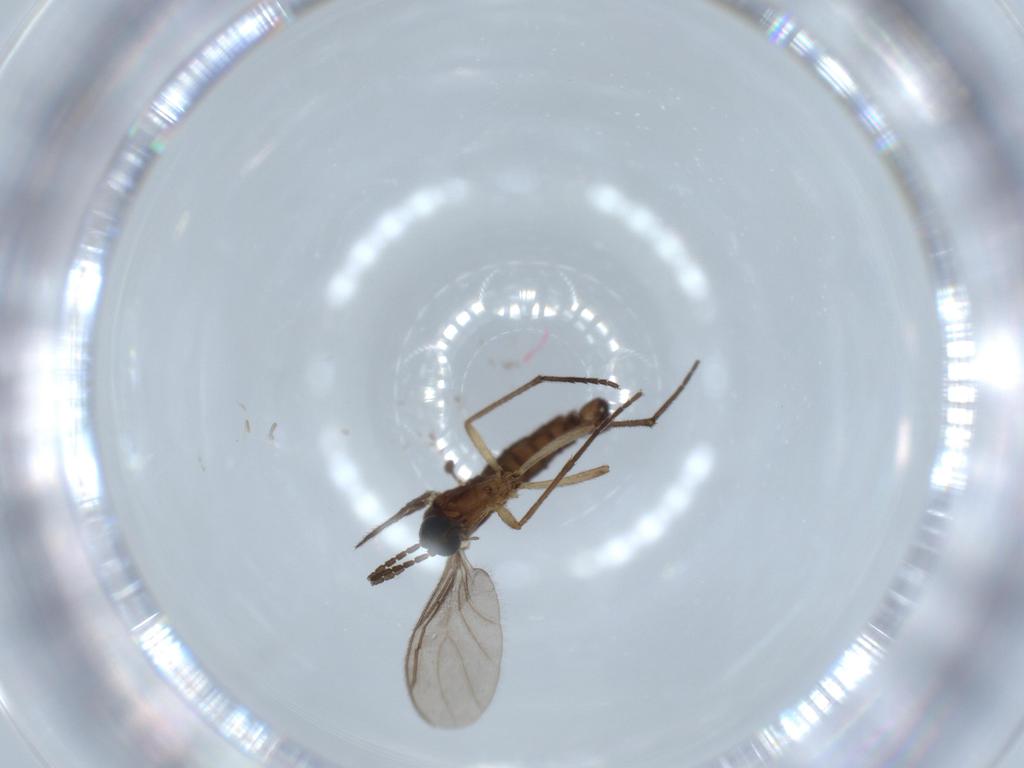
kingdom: Animalia
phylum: Arthropoda
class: Insecta
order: Diptera
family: Sciaridae
